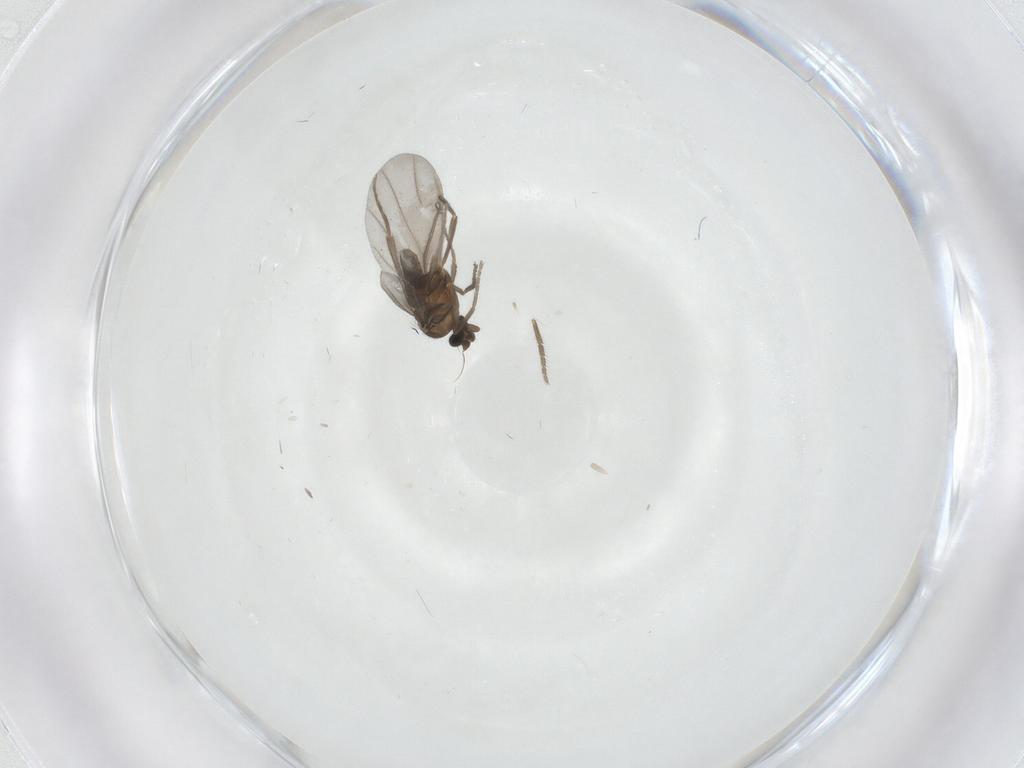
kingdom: Animalia
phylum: Arthropoda
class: Insecta
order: Diptera
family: Phoridae
